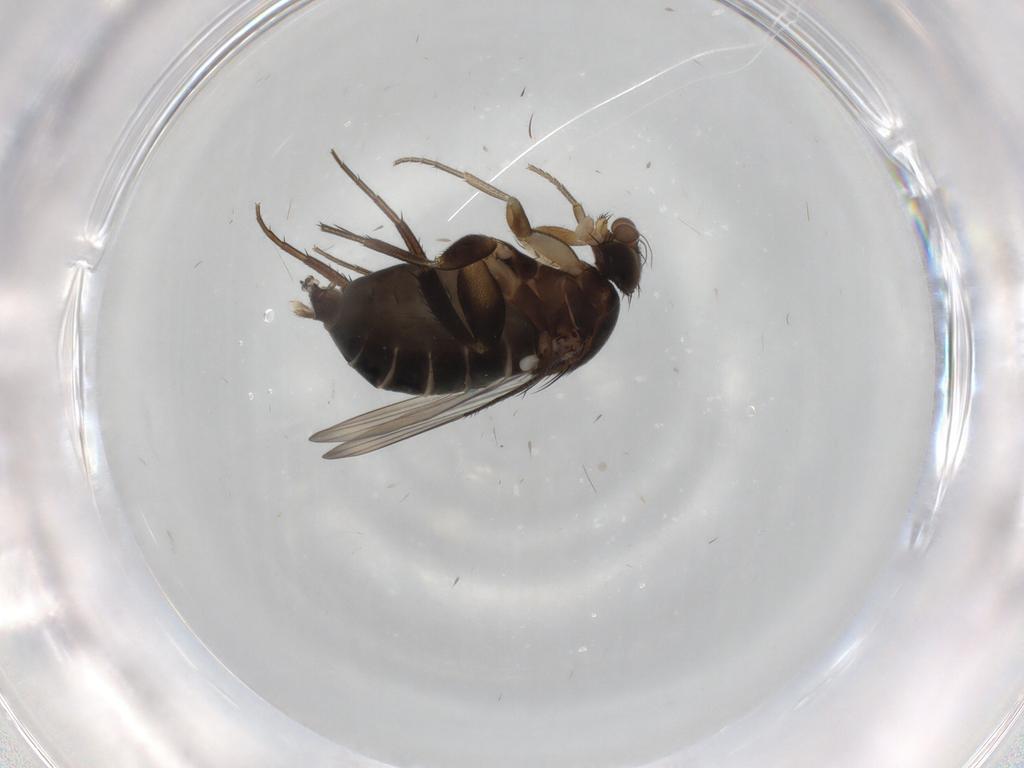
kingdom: Animalia
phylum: Arthropoda
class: Insecta
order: Diptera
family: Phoridae
